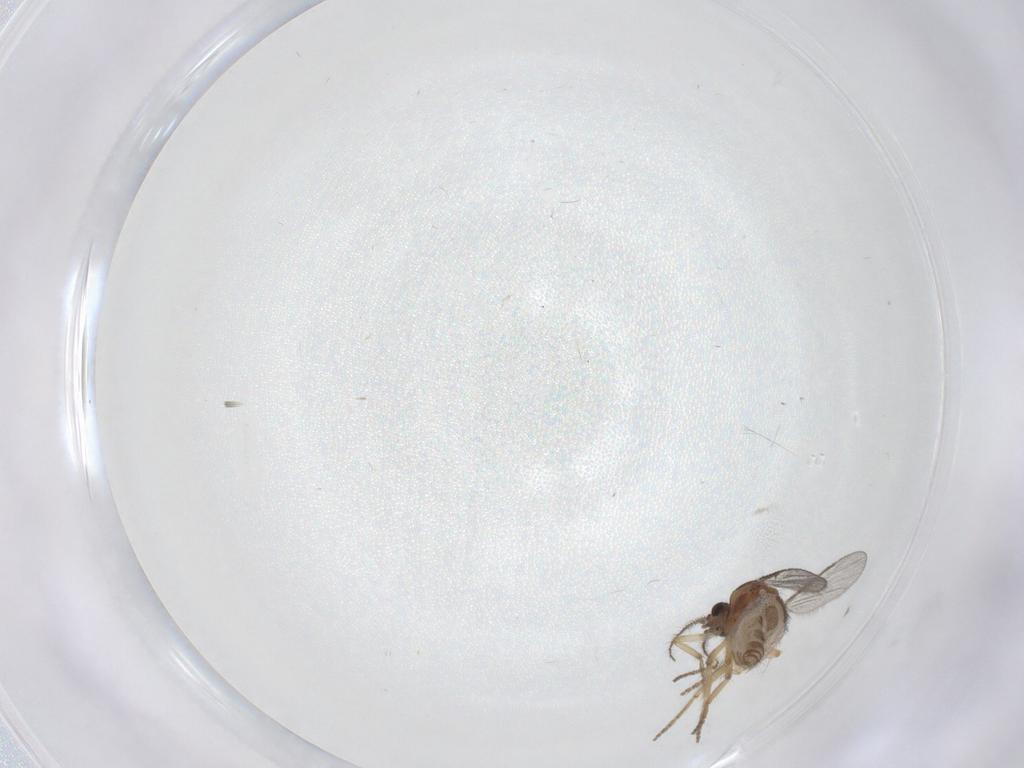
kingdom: Animalia
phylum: Arthropoda
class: Insecta
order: Diptera
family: Ceratopogonidae
